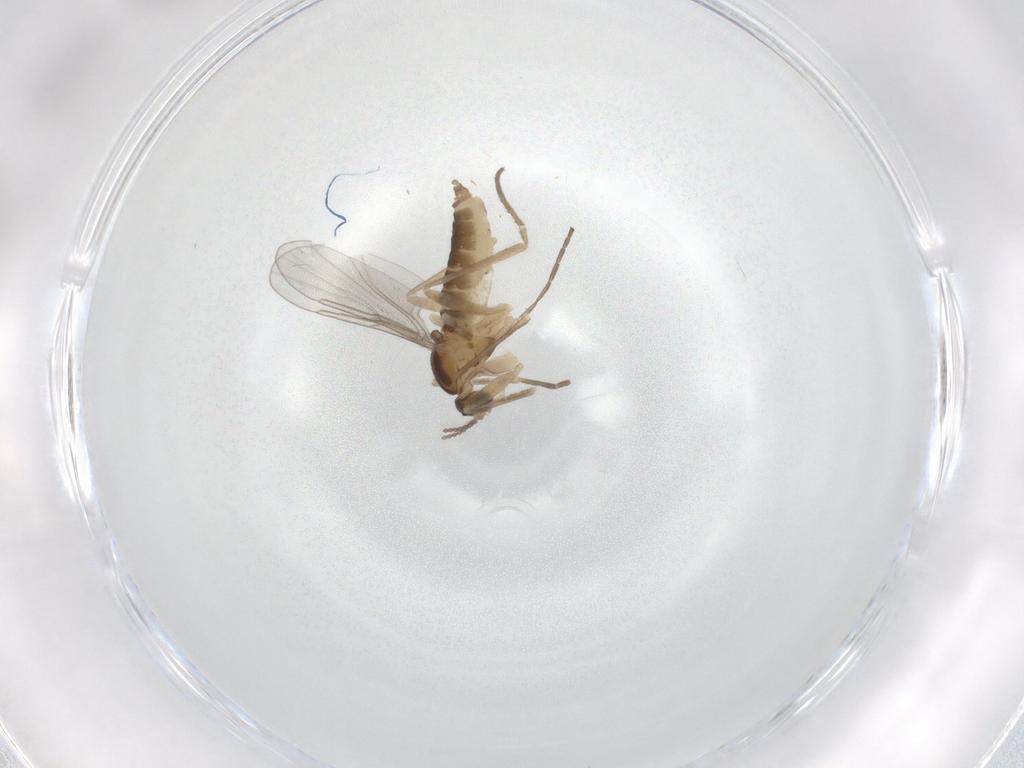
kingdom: Animalia
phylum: Arthropoda
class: Insecta
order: Diptera
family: Cecidomyiidae
